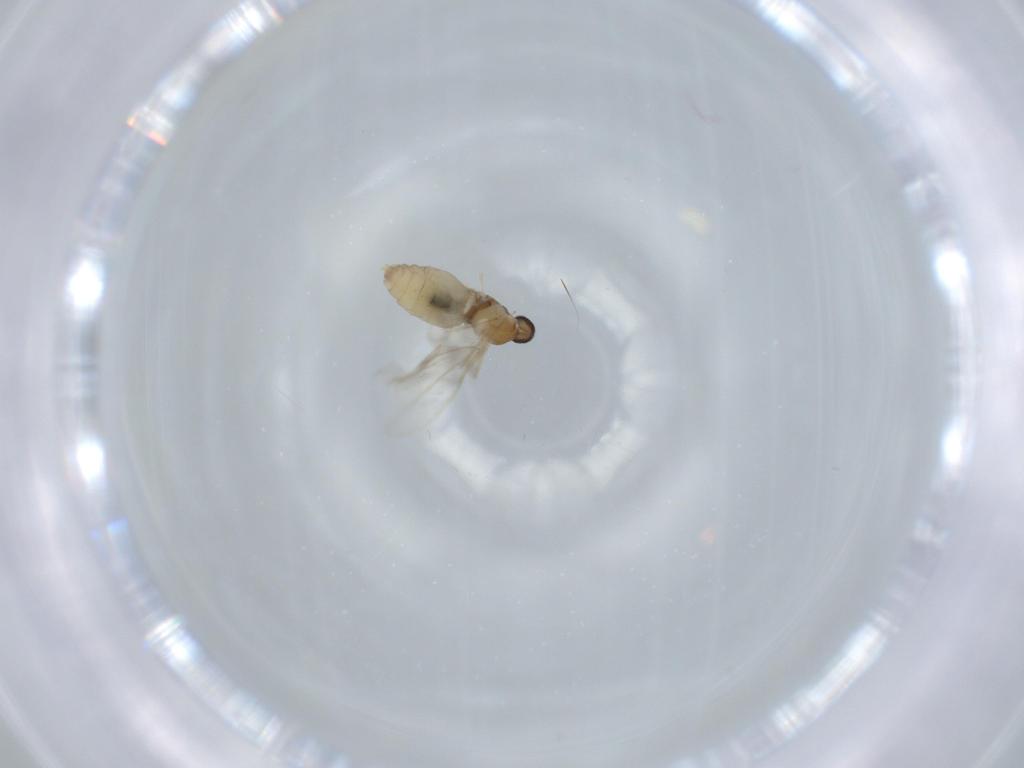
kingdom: Animalia
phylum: Arthropoda
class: Insecta
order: Diptera
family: Cecidomyiidae
